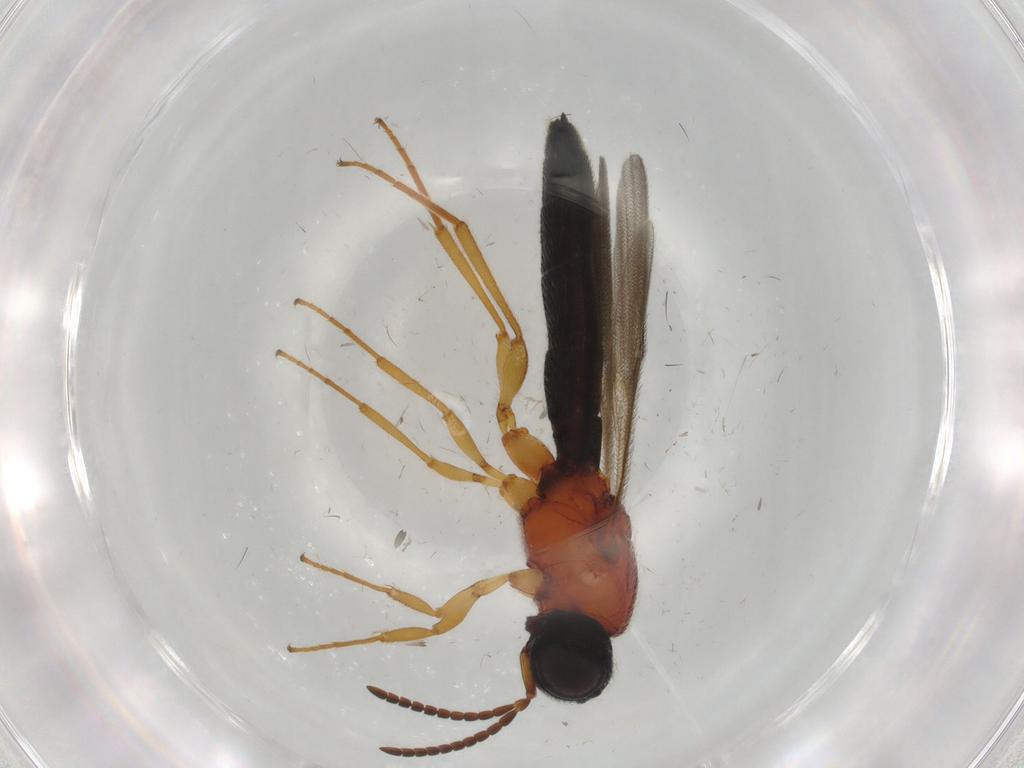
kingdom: Animalia
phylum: Arthropoda
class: Insecta
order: Hymenoptera
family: Scelionidae
